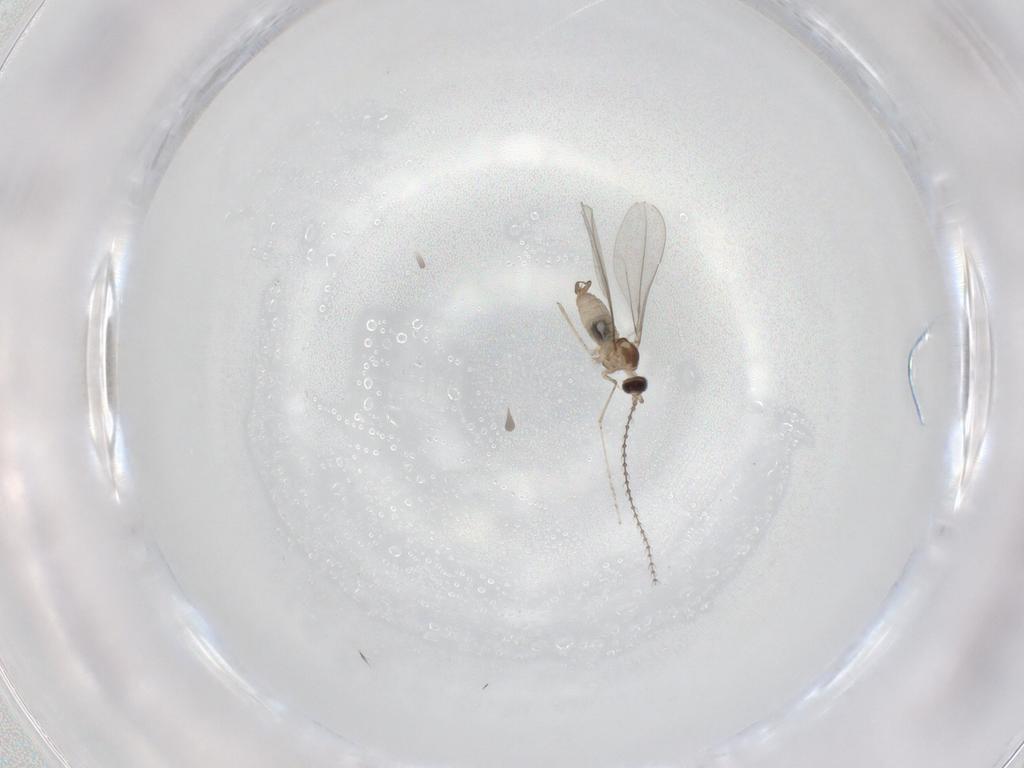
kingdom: Animalia
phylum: Arthropoda
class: Insecta
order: Diptera
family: Cecidomyiidae
